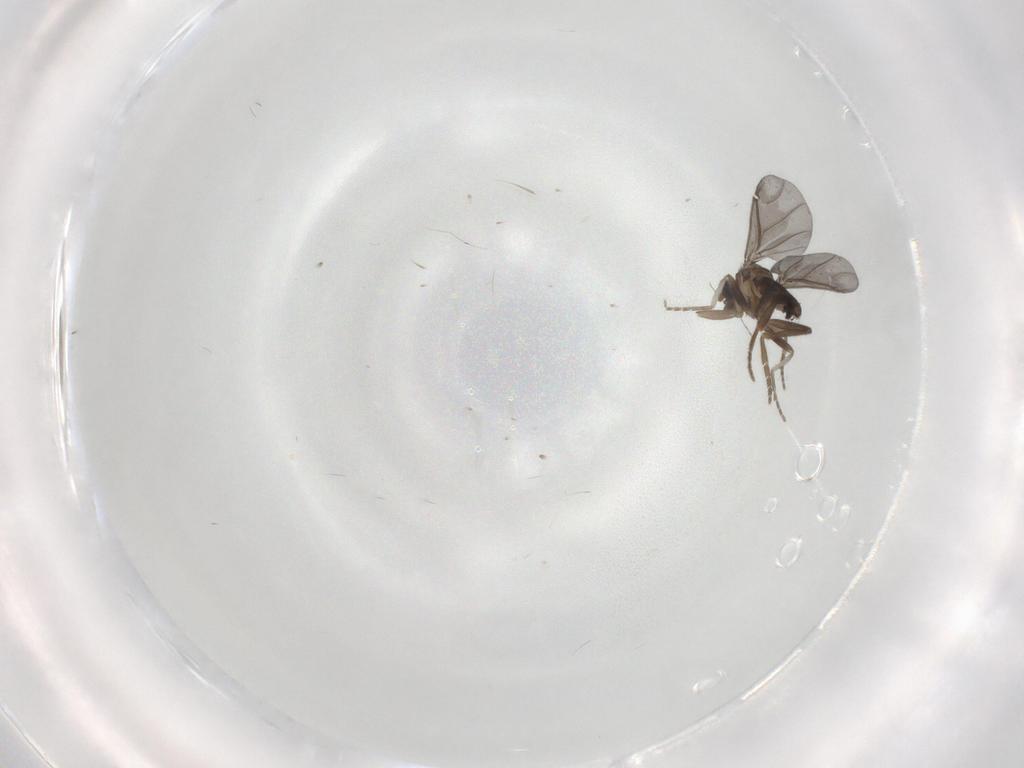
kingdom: Animalia
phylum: Arthropoda
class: Insecta
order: Diptera
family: Phoridae
